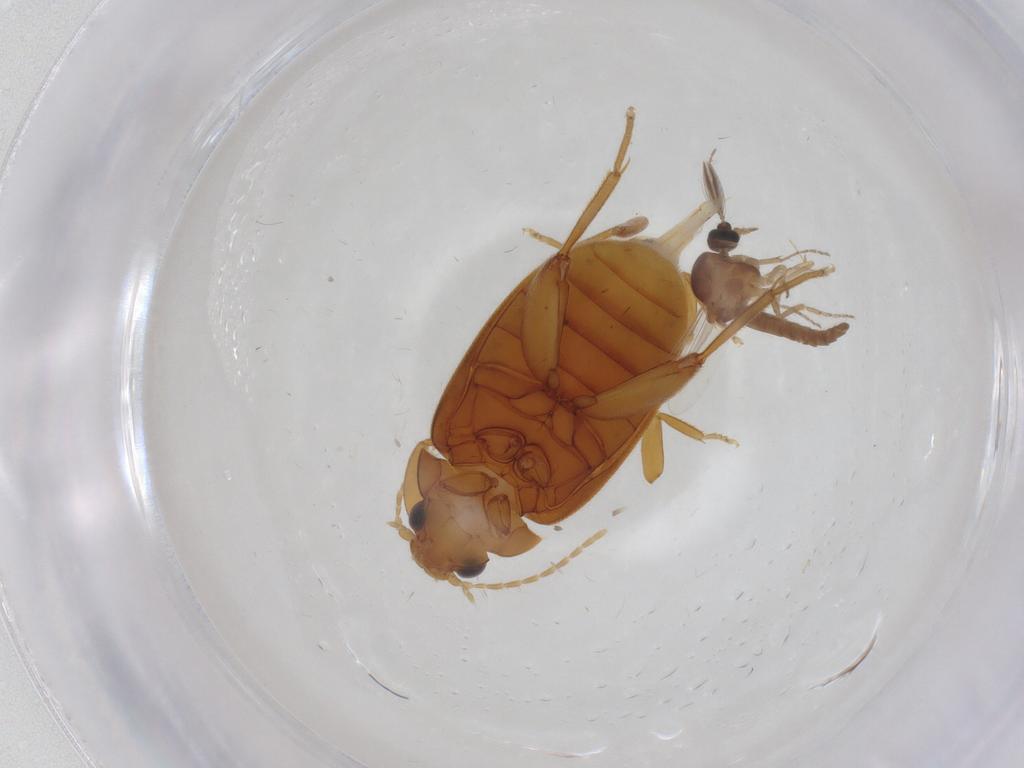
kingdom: Animalia
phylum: Arthropoda
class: Insecta
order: Diptera
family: Ceratopogonidae
